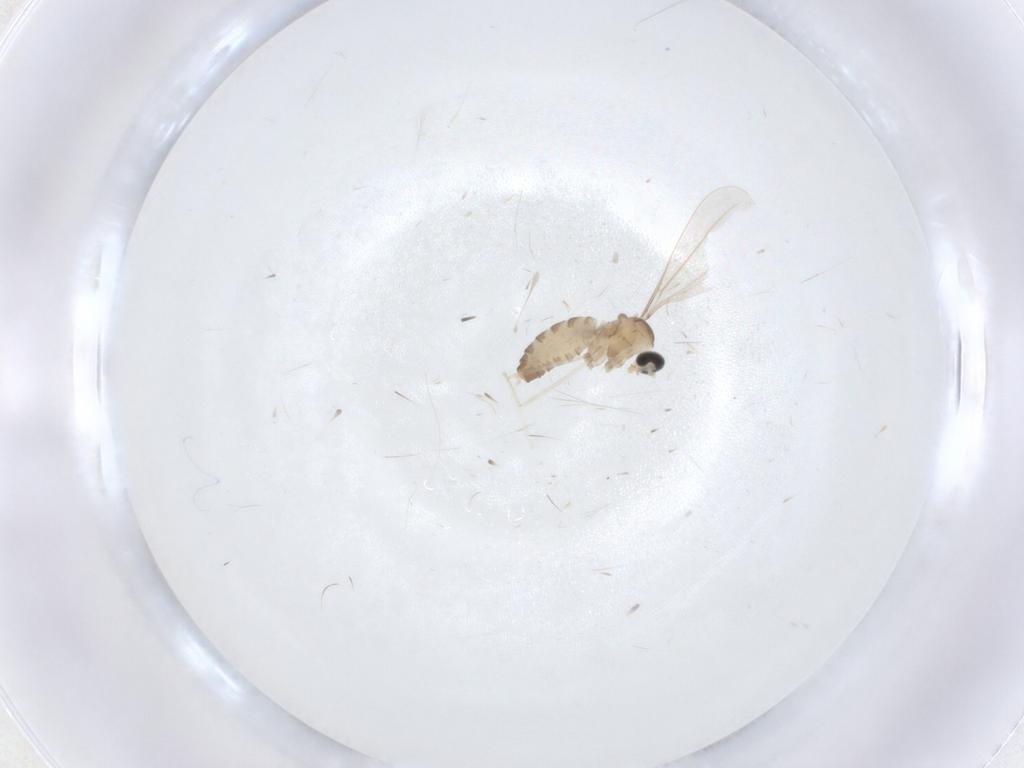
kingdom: Animalia
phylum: Arthropoda
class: Insecta
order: Diptera
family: Cecidomyiidae
